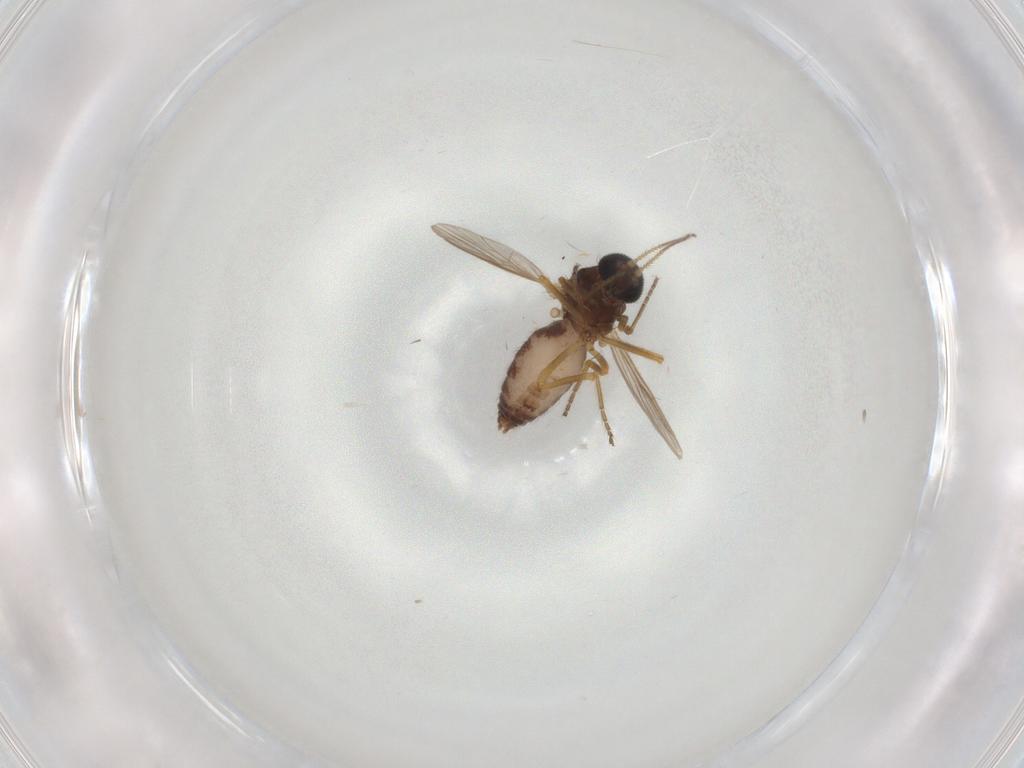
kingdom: Animalia
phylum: Arthropoda
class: Insecta
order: Diptera
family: Ceratopogonidae
